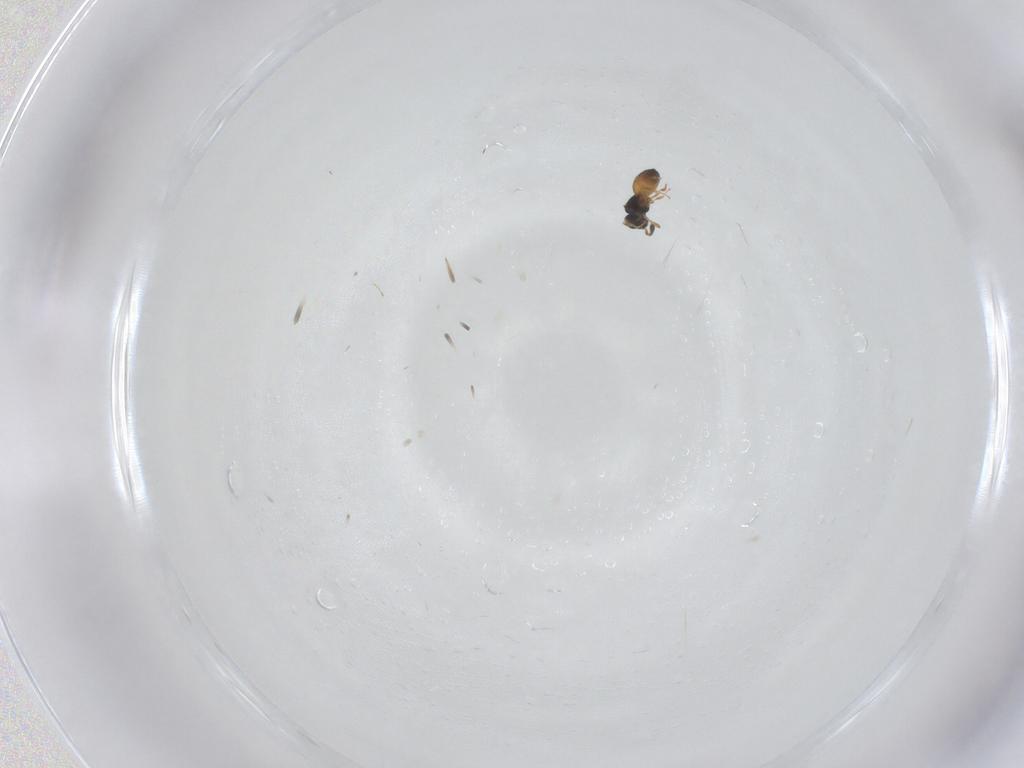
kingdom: Animalia
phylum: Arthropoda
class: Insecta
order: Hymenoptera
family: Scelionidae
